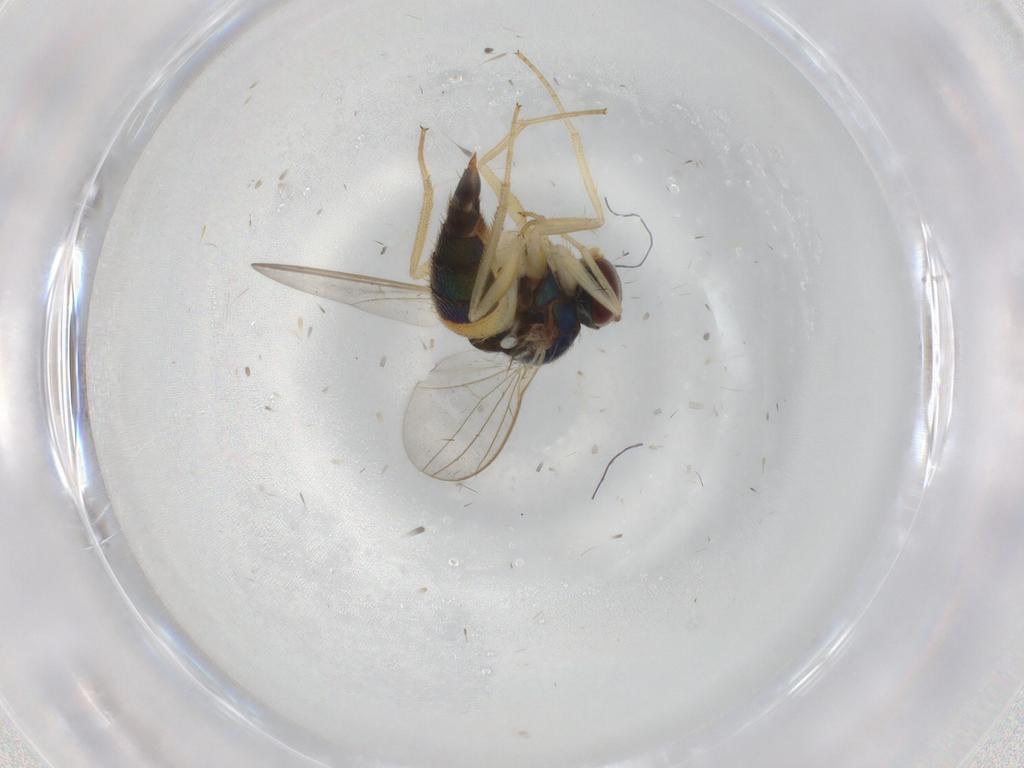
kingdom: Animalia
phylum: Arthropoda
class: Insecta
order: Diptera
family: Dolichopodidae
